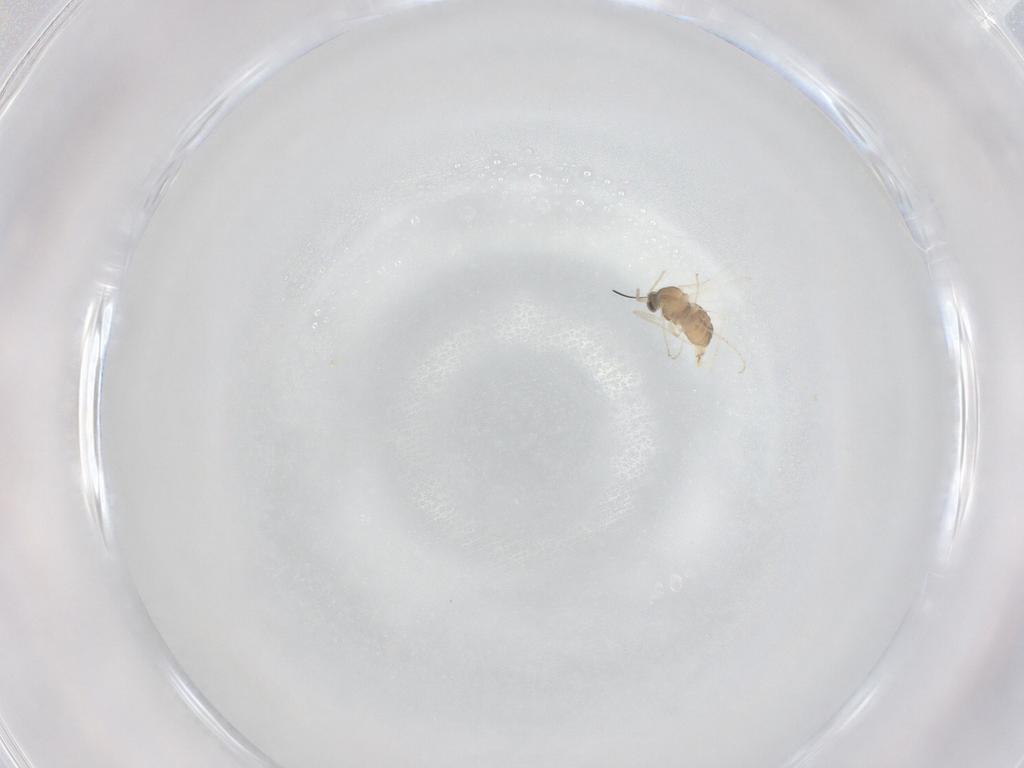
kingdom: Animalia
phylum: Arthropoda
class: Insecta
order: Diptera
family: Cecidomyiidae
